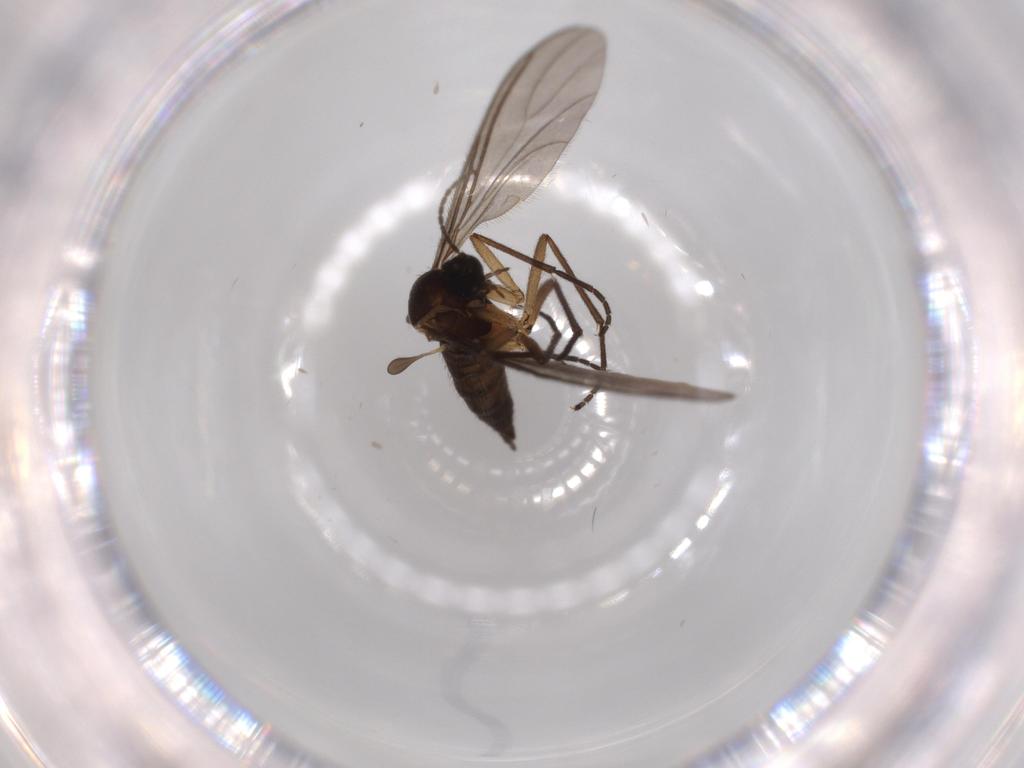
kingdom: Animalia
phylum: Arthropoda
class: Insecta
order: Diptera
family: Sciaridae
